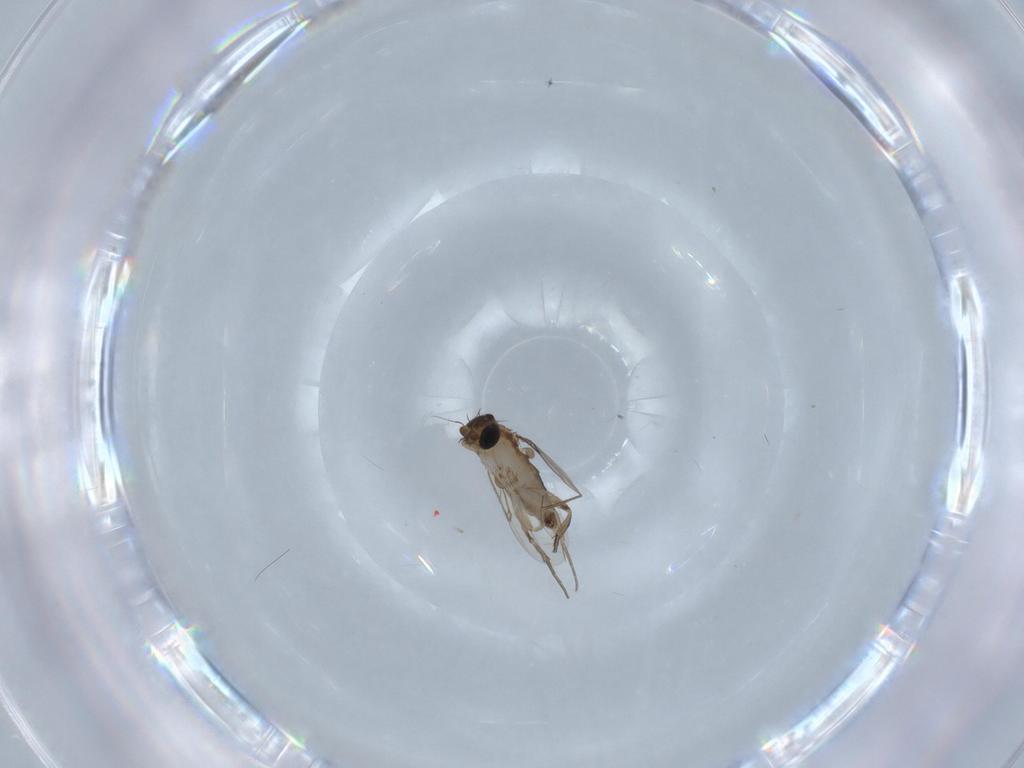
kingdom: Animalia
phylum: Arthropoda
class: Insecta
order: Diptera
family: Phoridae
